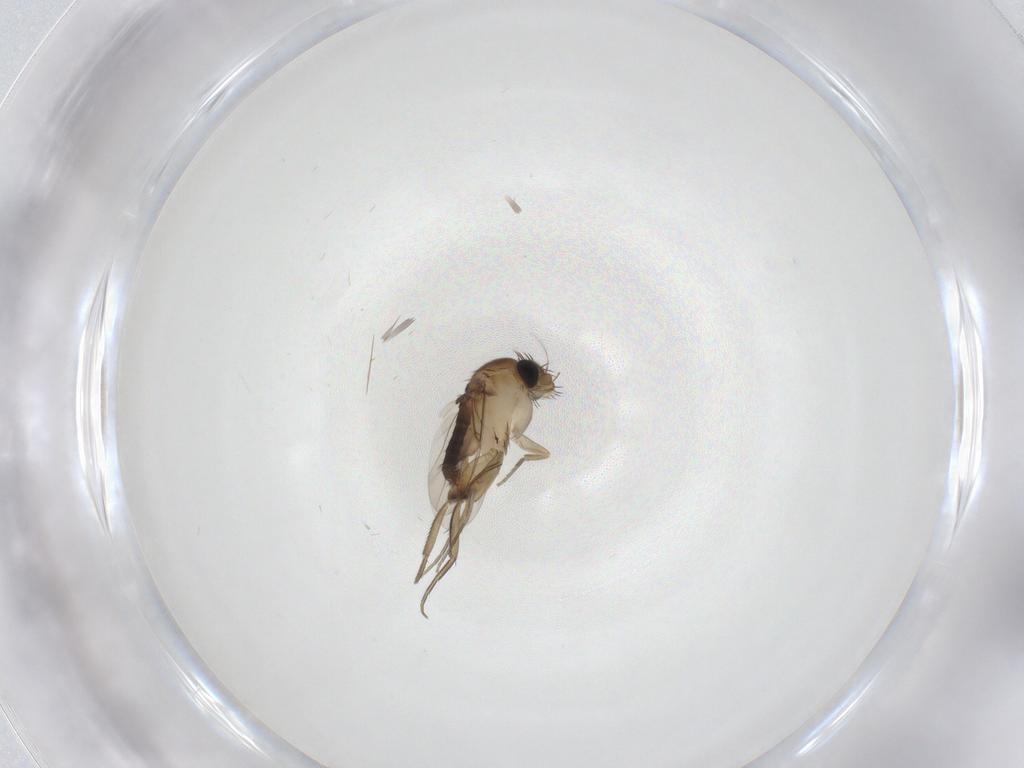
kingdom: Animalia
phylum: Arthropoda
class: Insecta
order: Diptera
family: Phoridae
